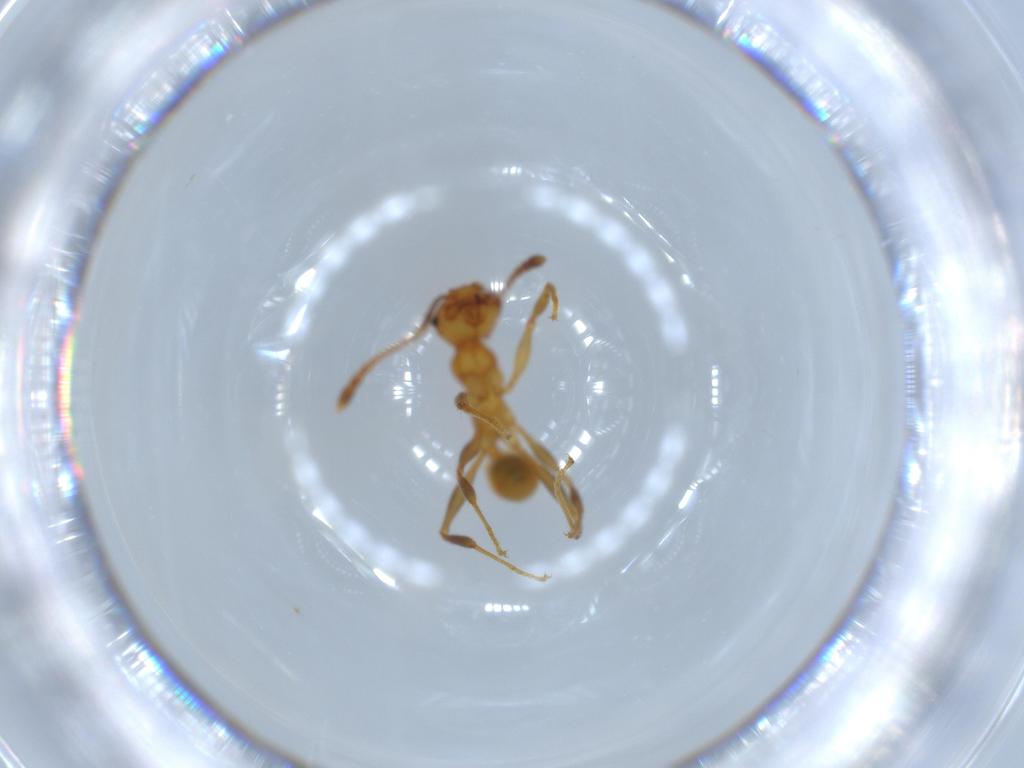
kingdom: Animalia
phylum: Arthropoda
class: Insecta
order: Hymenoptera
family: Formicidae
